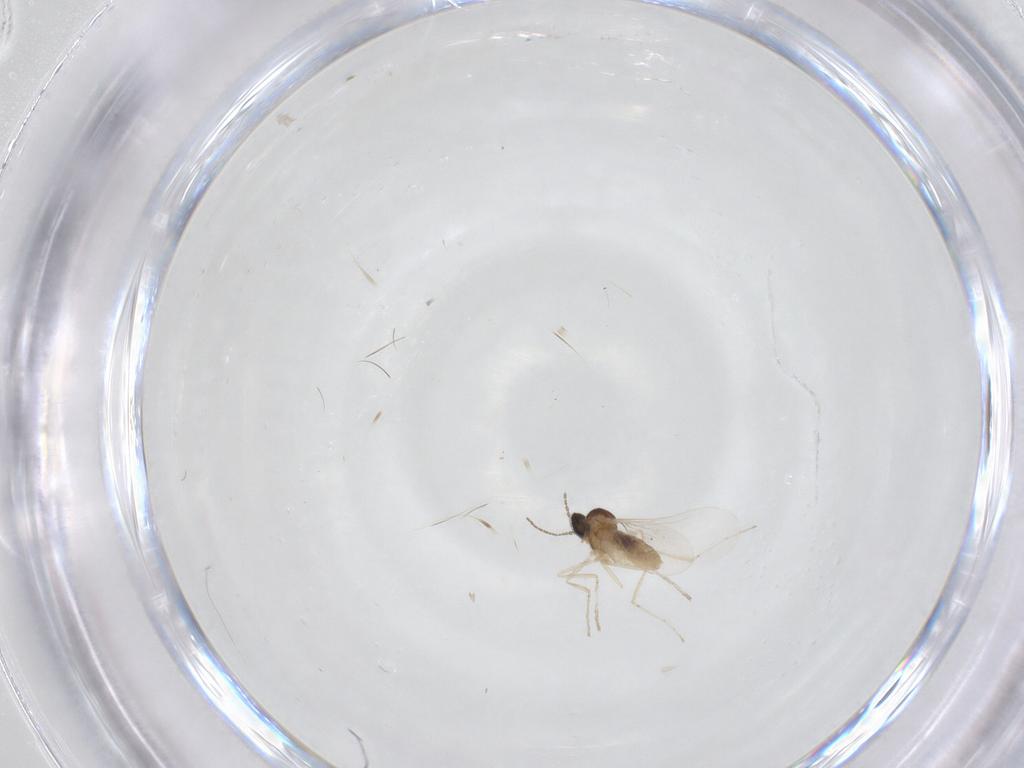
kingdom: Animalia
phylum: Arthropoda
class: Insecta
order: Diptera
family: Cecidomyiidae
